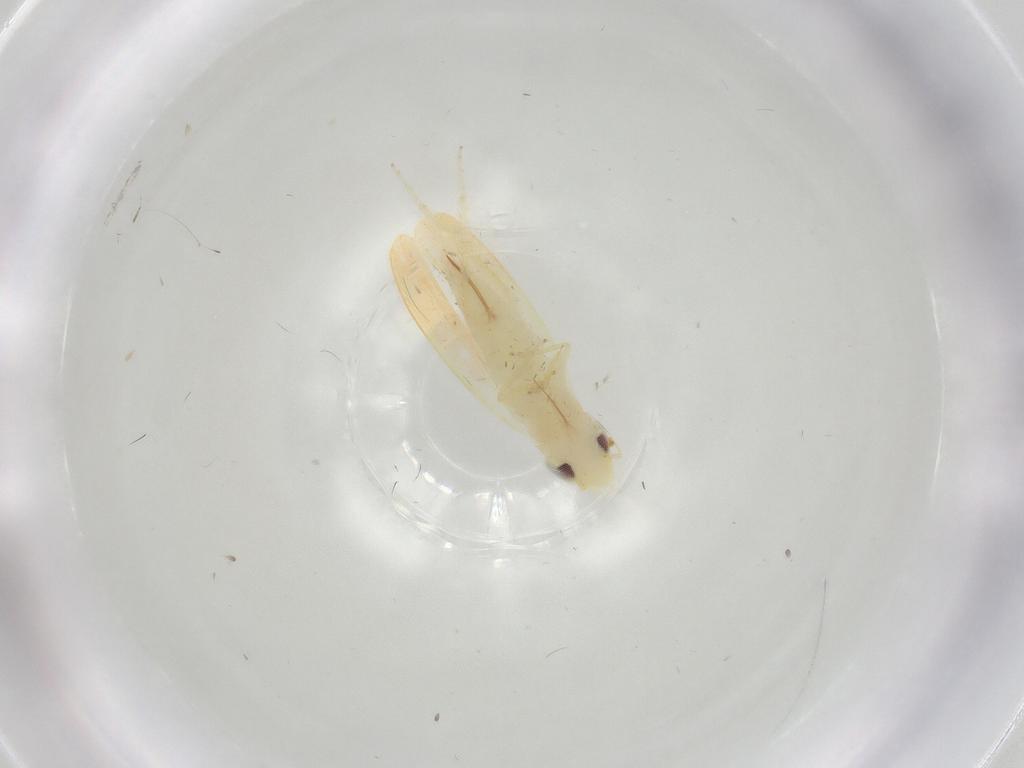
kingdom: Animalia
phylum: Arthropoda
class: Insecta
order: Hemiptera
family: Cicadellidae
